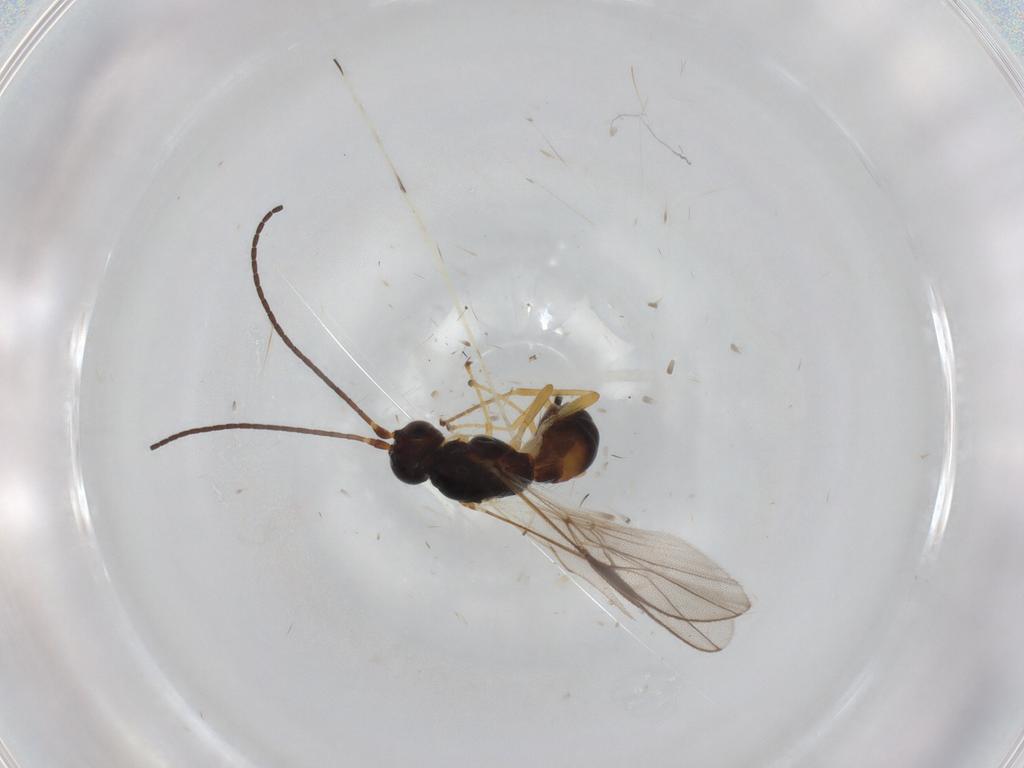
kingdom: Animalia
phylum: Arthropoda
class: Insecta
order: Hymenoptera
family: Braconidae
